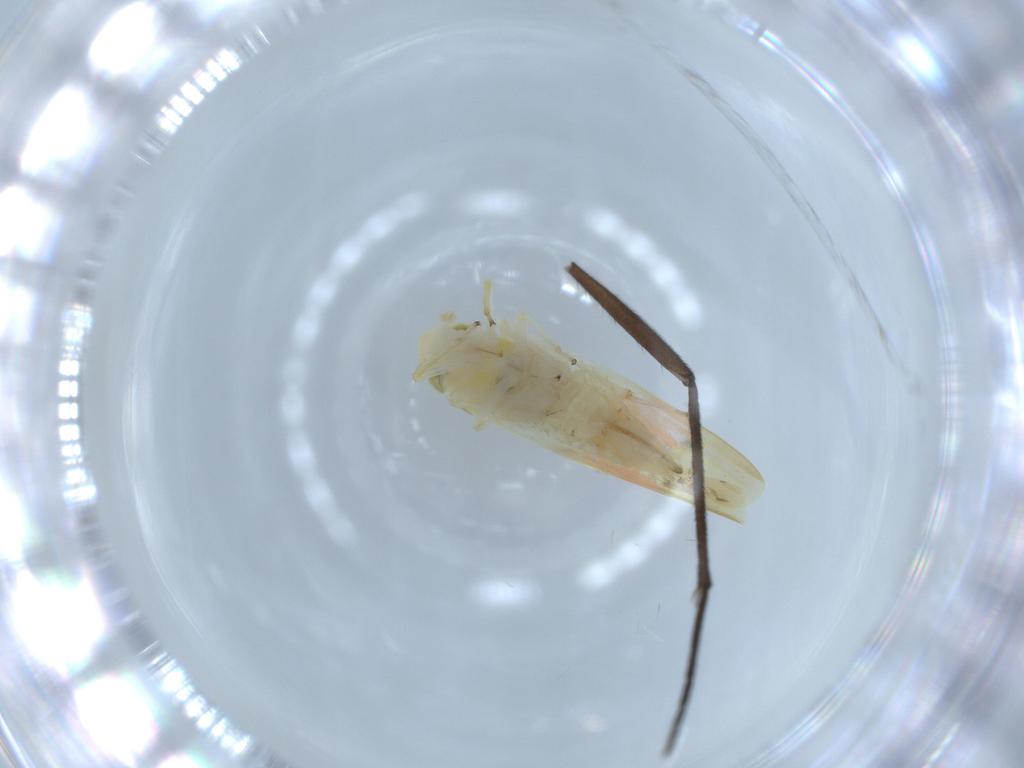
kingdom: Animalia
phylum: Arthropoda
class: Insecta
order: Hemiptera
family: Cicadellidae
